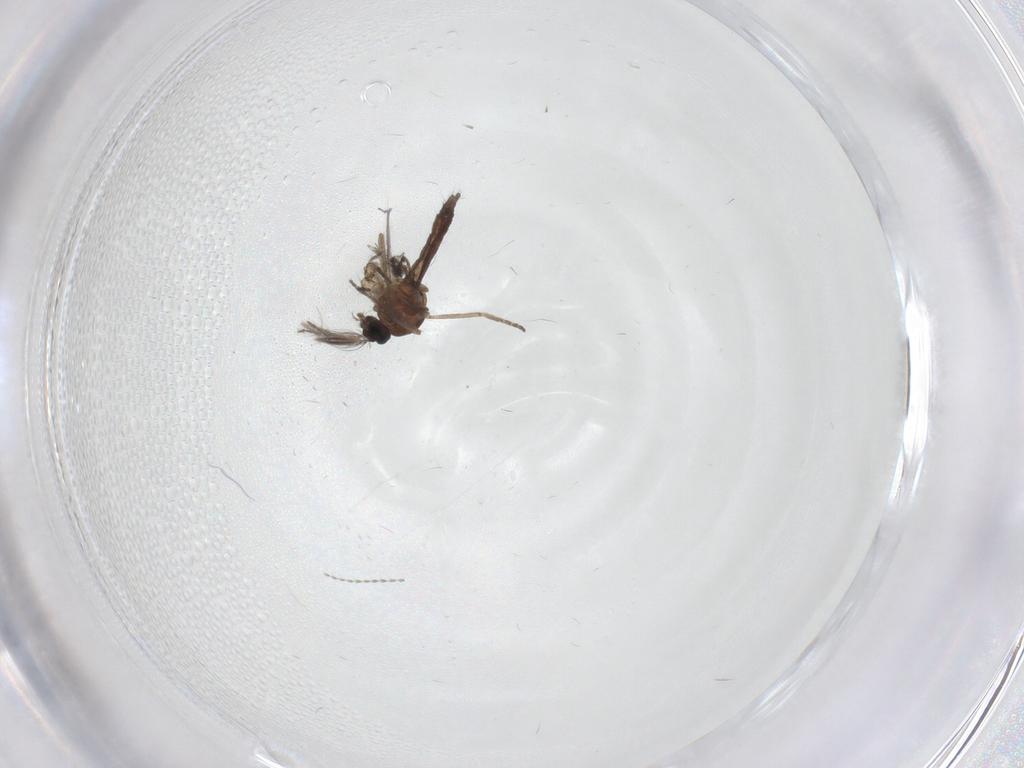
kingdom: Animalia
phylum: Arthropoda
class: Insecta
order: Diptera
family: Ceratopogonidae
